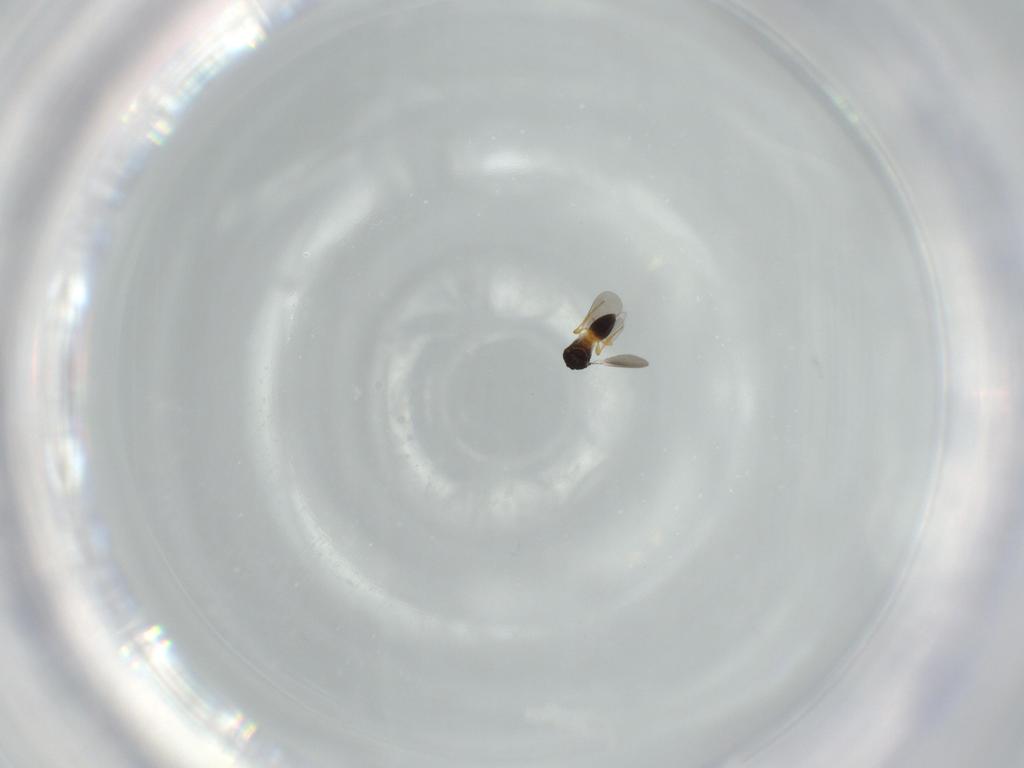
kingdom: Animalia
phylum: Arthropoda
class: Insecta
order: Hymenoptera
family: Platygastridae
